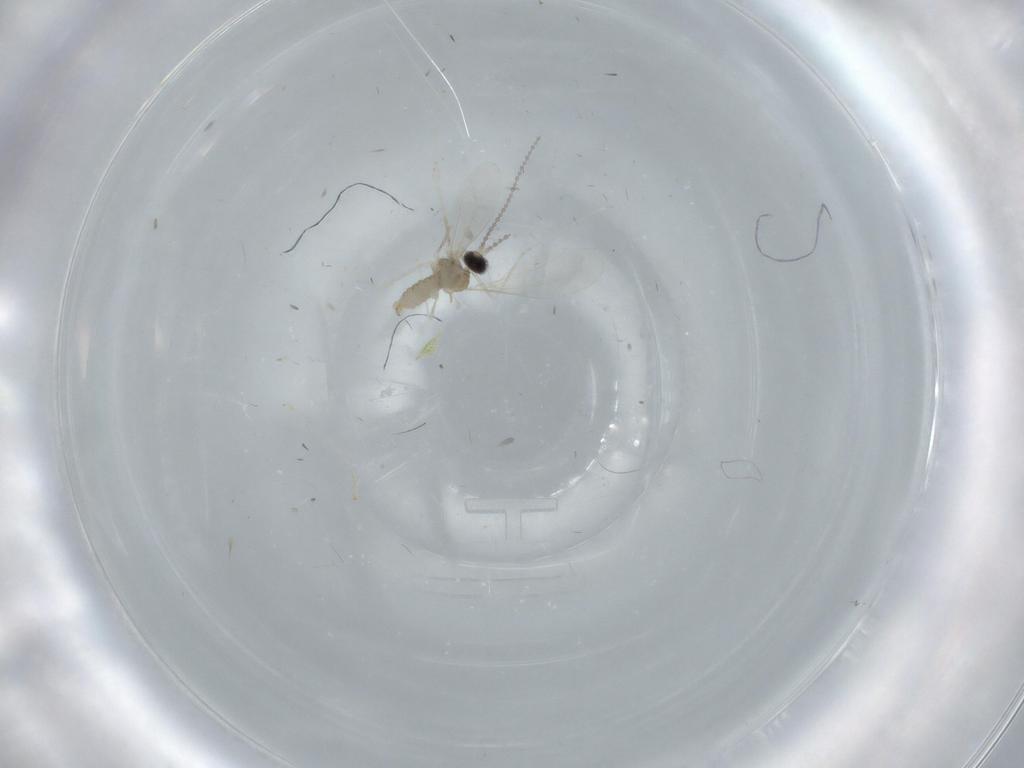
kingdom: Animalia
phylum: Arthropoda
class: Insecta
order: Diptera
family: Cecidomyiidae
